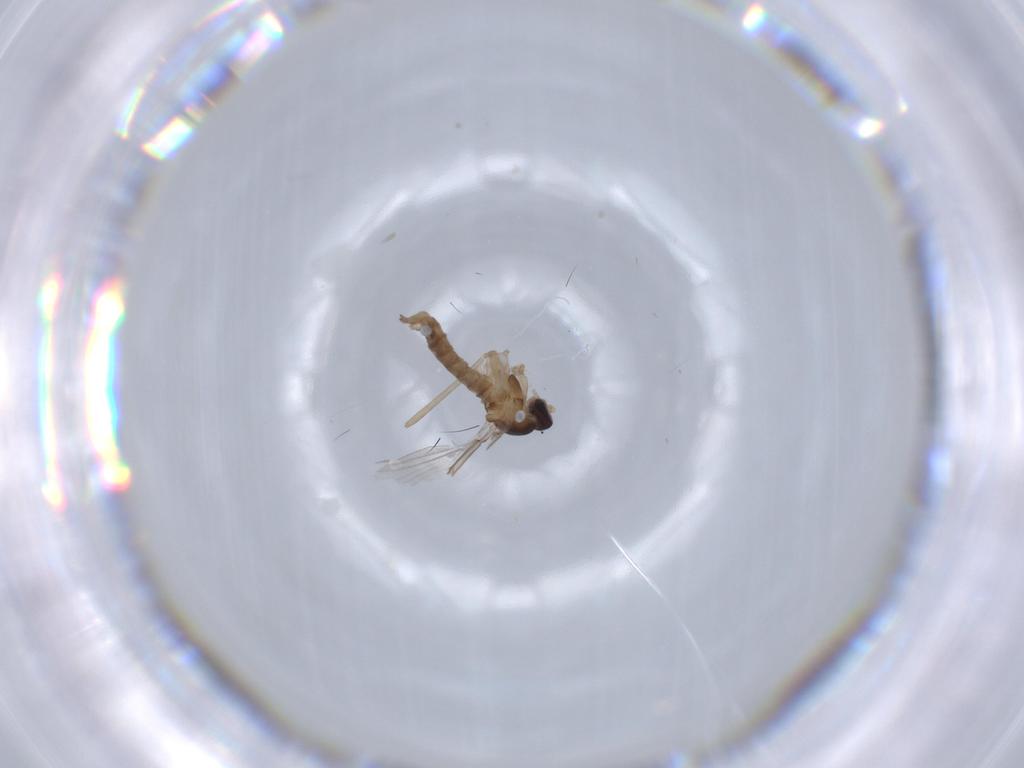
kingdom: Animalia
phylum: Arthropoda
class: Insecta
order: Diptera
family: Cecidomyiidae
